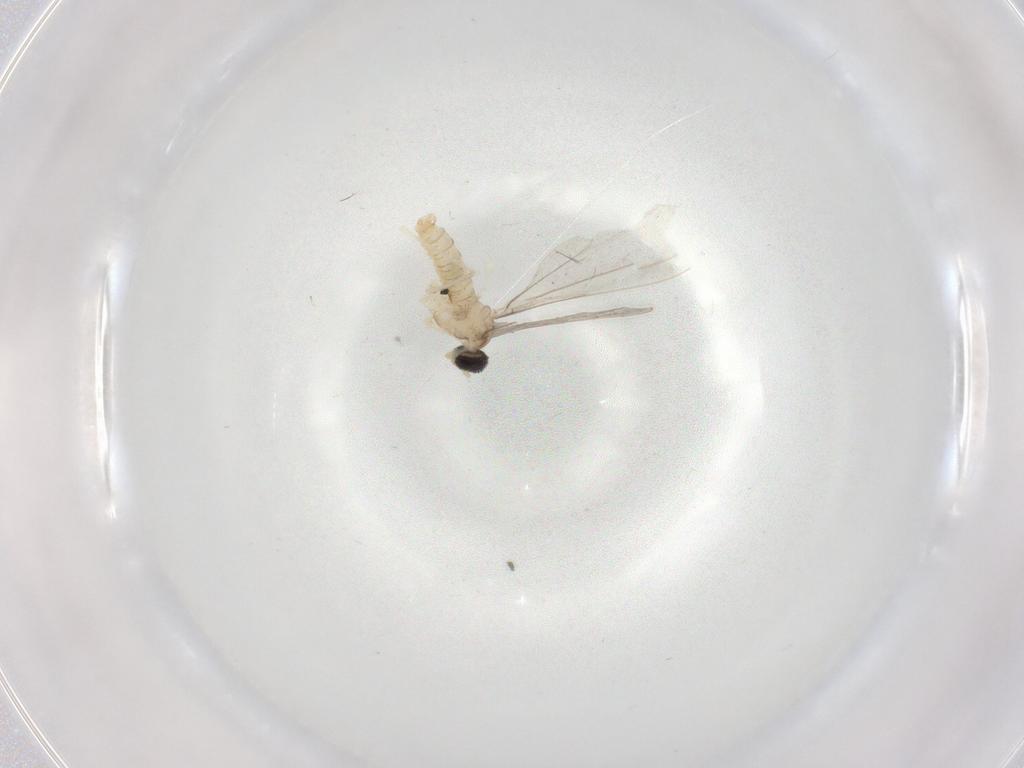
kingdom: Animalia
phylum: Arthropoda
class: Insecta
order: Diptera
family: Cecidomyiidae
